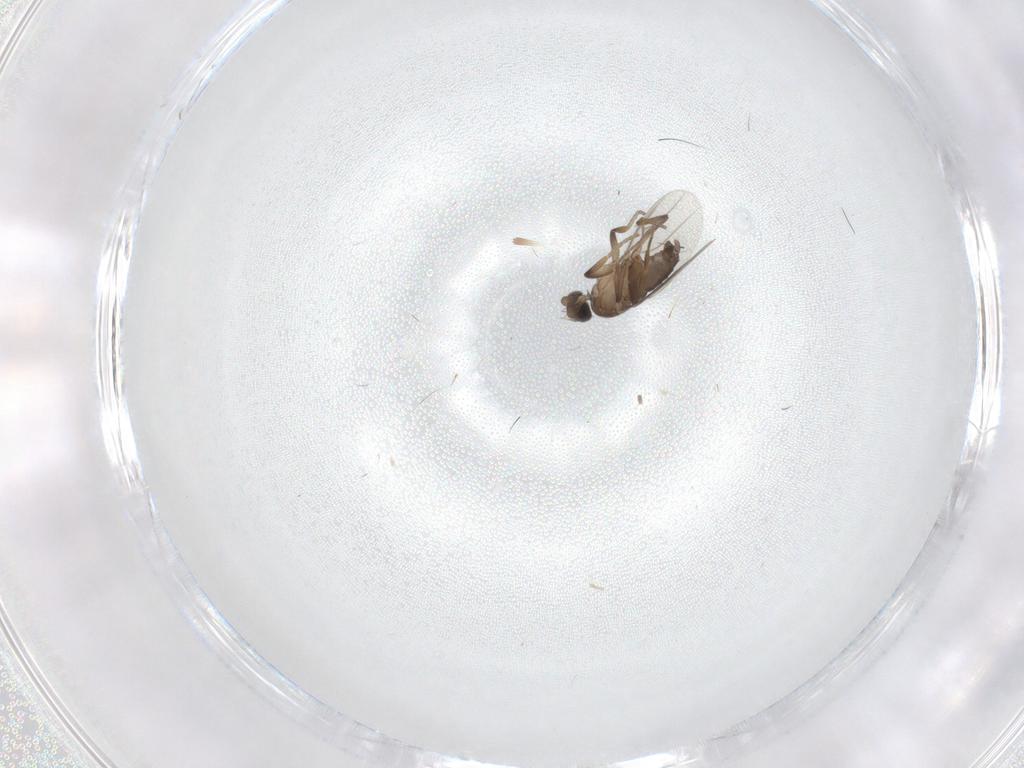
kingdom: Animalia
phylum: Arthropoda
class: Insecta
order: Diptera
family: Phoridae
